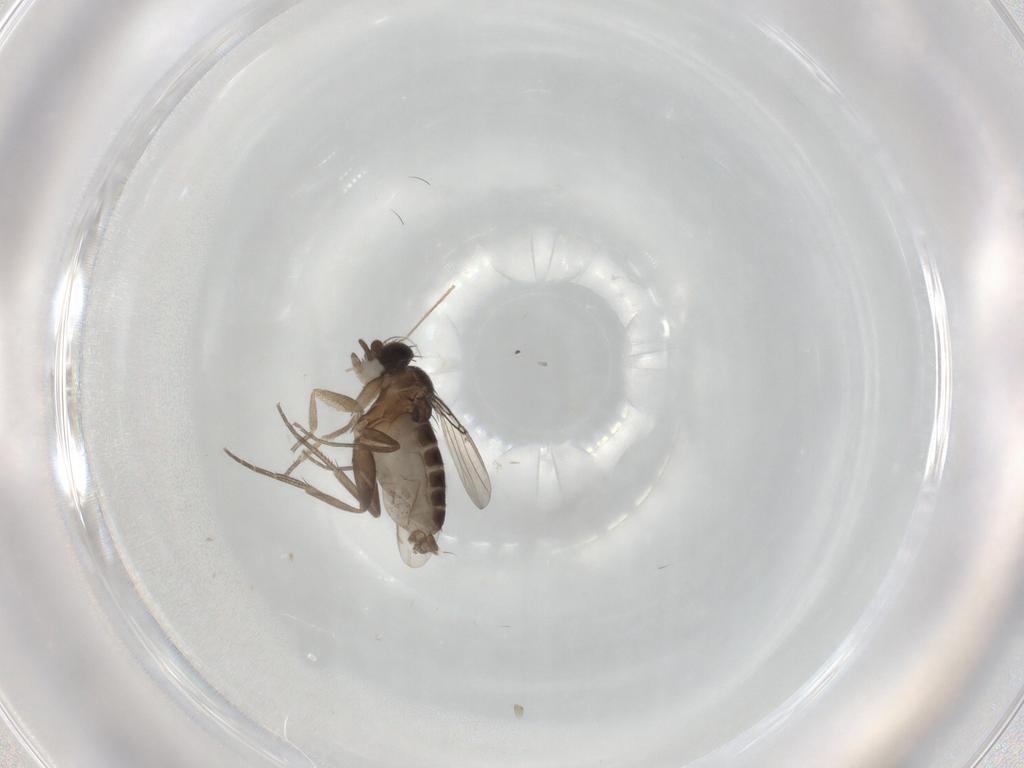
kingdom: Animalia
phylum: Arthropoda
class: Insecta
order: Diptera
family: Phoridae
